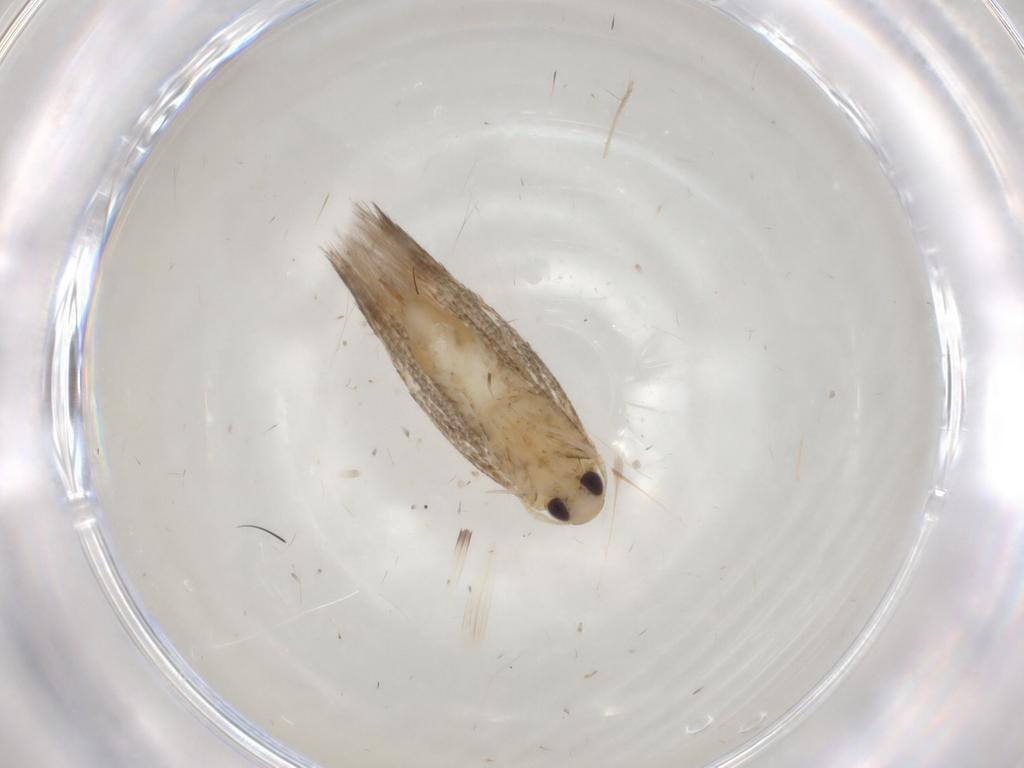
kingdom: Animalia
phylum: Arthropoda
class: Insecta
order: Lepidoptera
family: Cosmopterigidae
